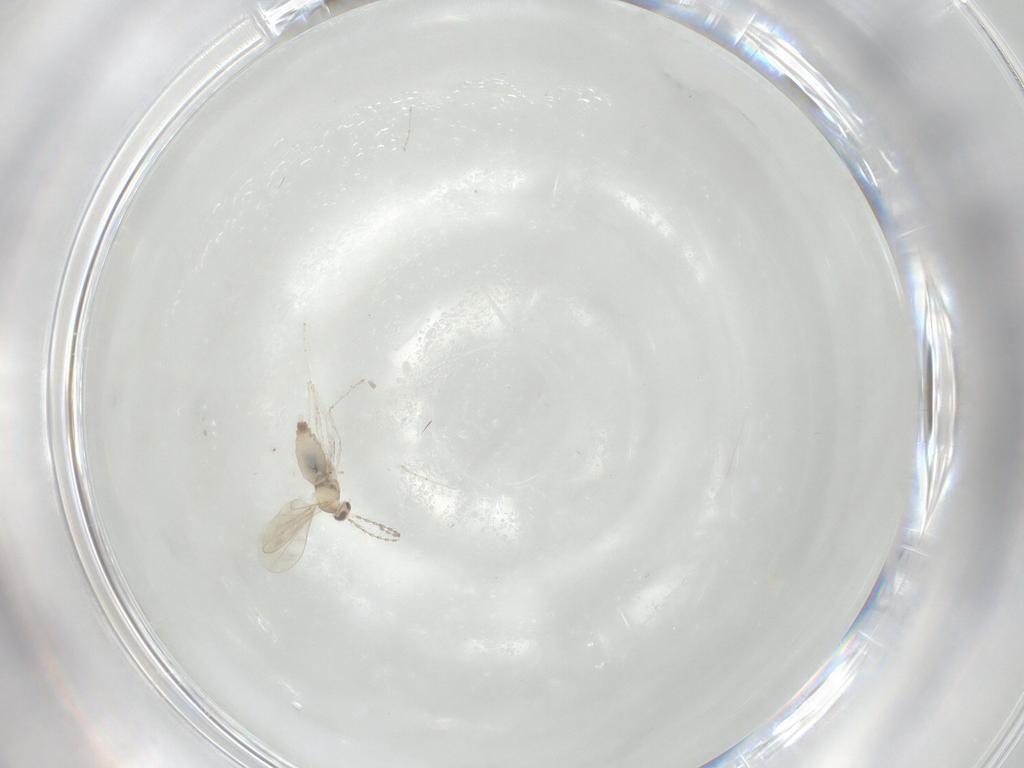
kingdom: Animalia
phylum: Arthropoda
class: Insecta
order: Diptera
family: Cecidomyiidae
